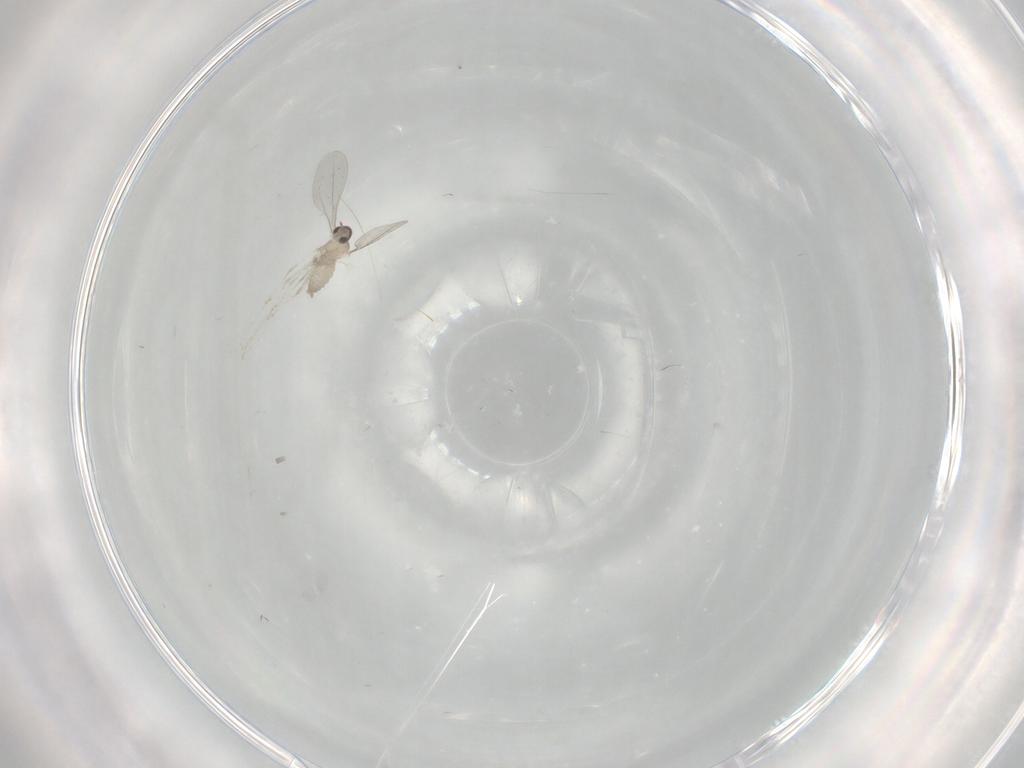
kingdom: Animalia
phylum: Arthropoda
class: Insecta
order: Diptera
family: Cecidomyiidae
